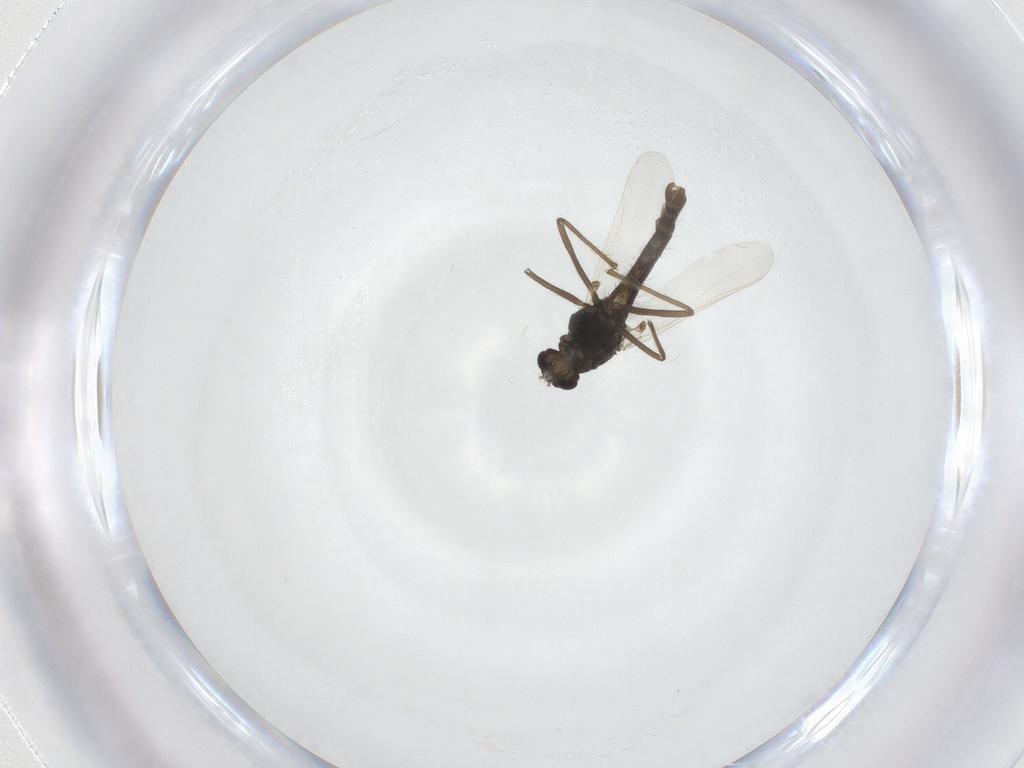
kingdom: Animalia
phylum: Arthropoda
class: Insecta
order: Diptera
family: Chironomidae
